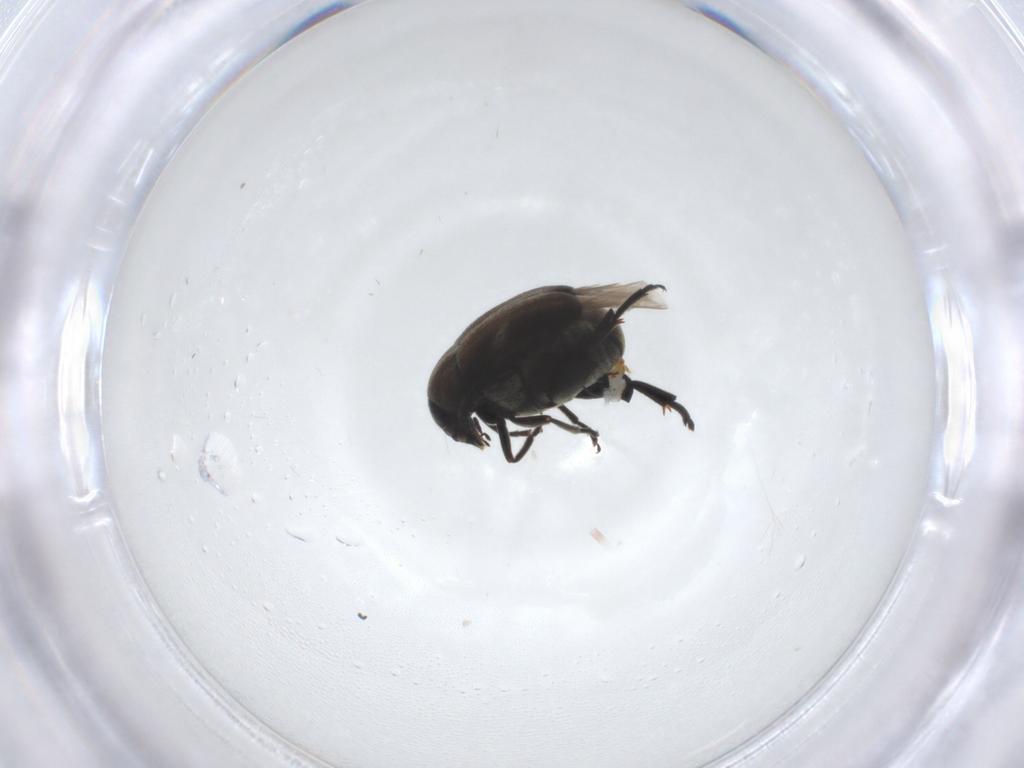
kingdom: Animalia
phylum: Arthropoda
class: Insecta
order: Coleoptera
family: Chrysomelidae
